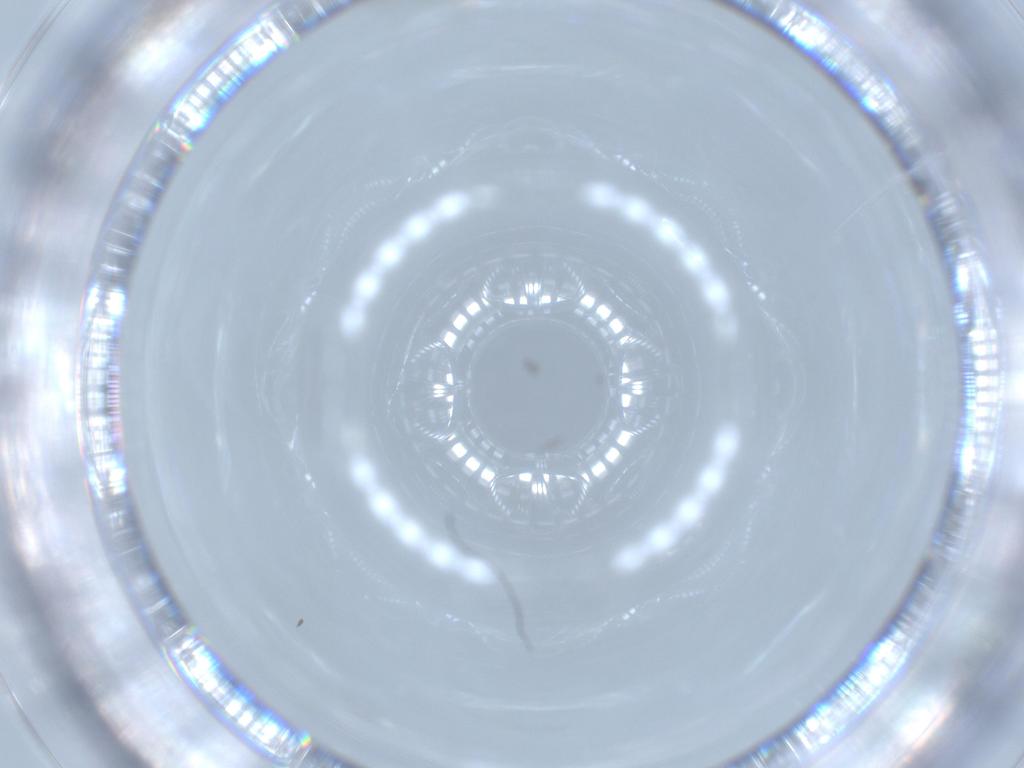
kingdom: Animalia
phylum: Arthropoda
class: Insecta
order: Diptera
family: Chironomidae
